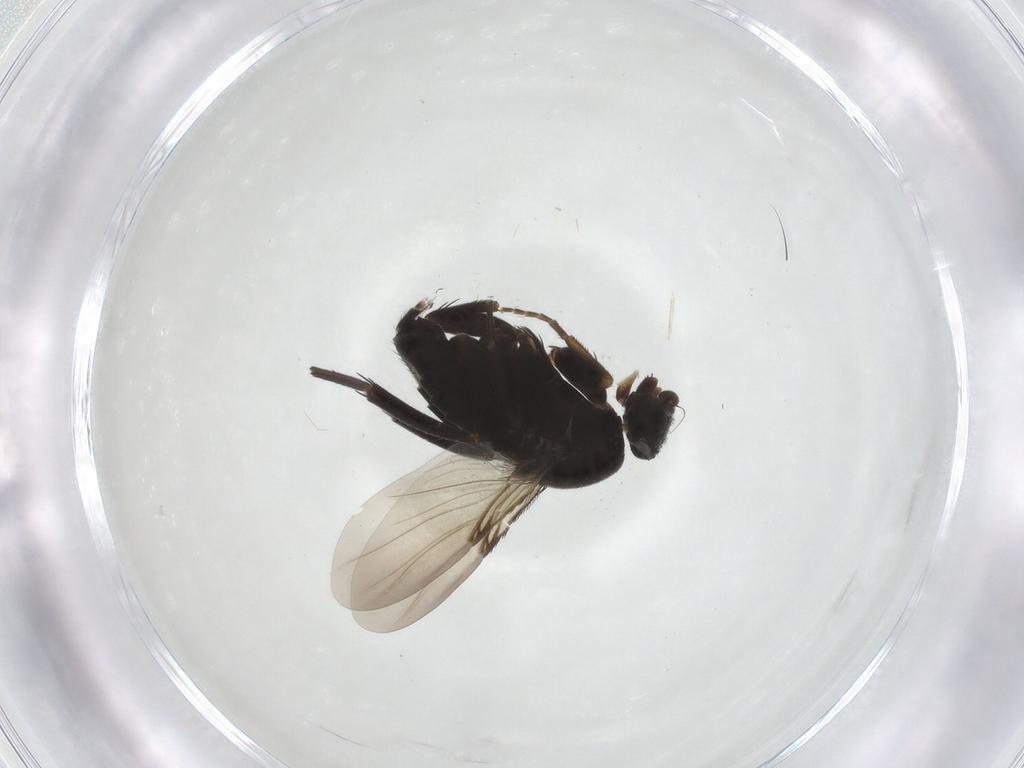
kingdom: Animalia
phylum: Arthropoda
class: Insecta
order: Diptera
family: Phoridae
